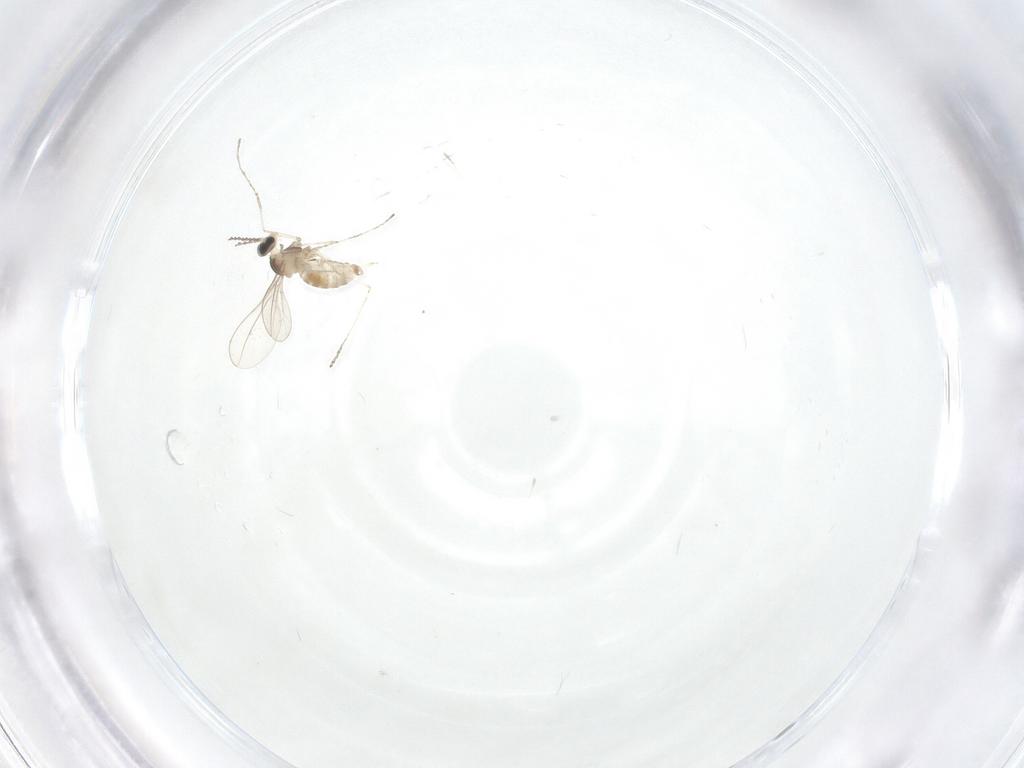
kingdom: Animalia
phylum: Arthropoda
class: Insecta
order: Diptera
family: Cecidomyiidae
